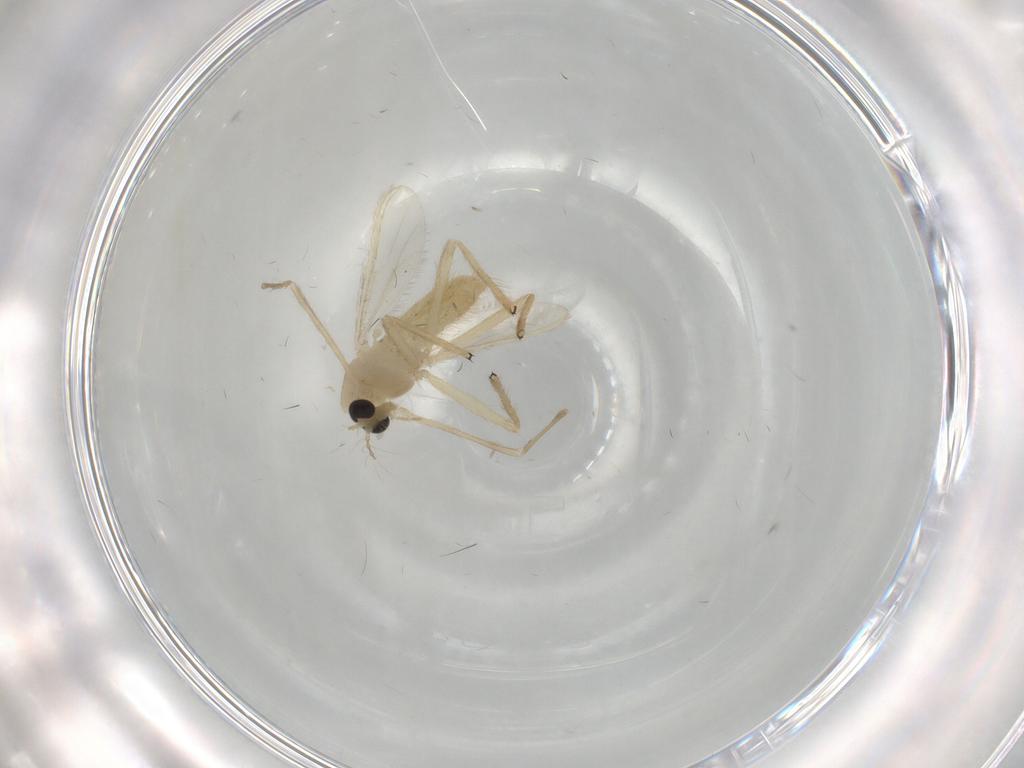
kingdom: Animalia
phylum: Arthropoda
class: Insecta
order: Diptera
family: Chironomidae
